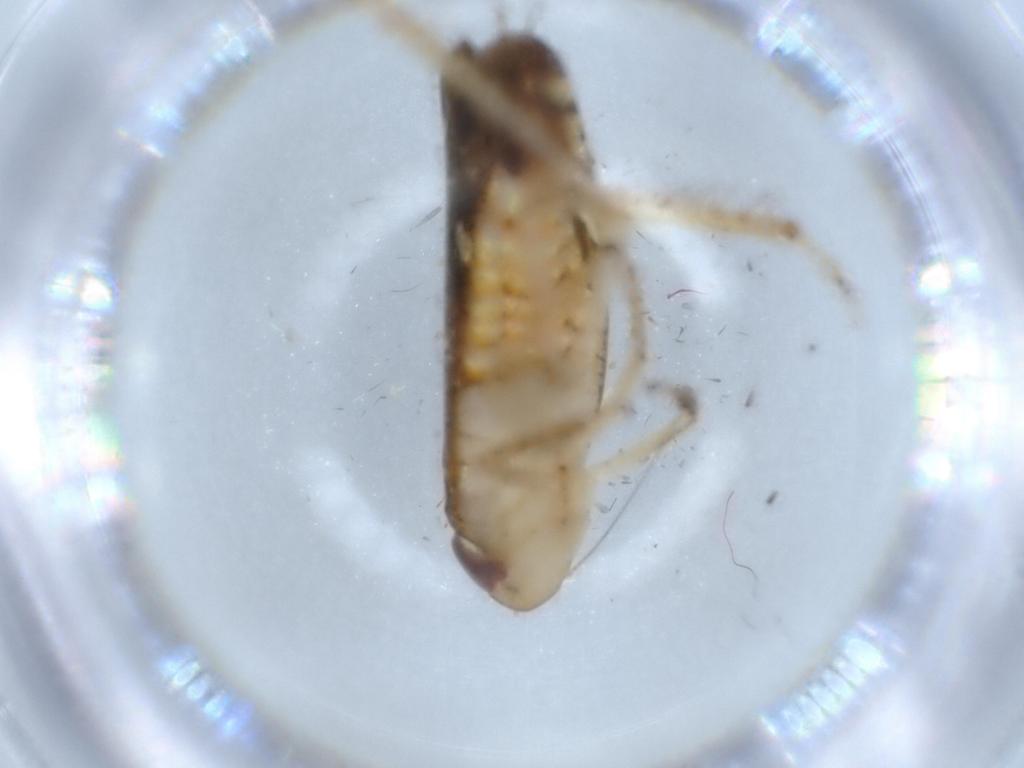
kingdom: Animalia
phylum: Arthropoda
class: Insecta
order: Hemiptera
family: Cicadellidae
